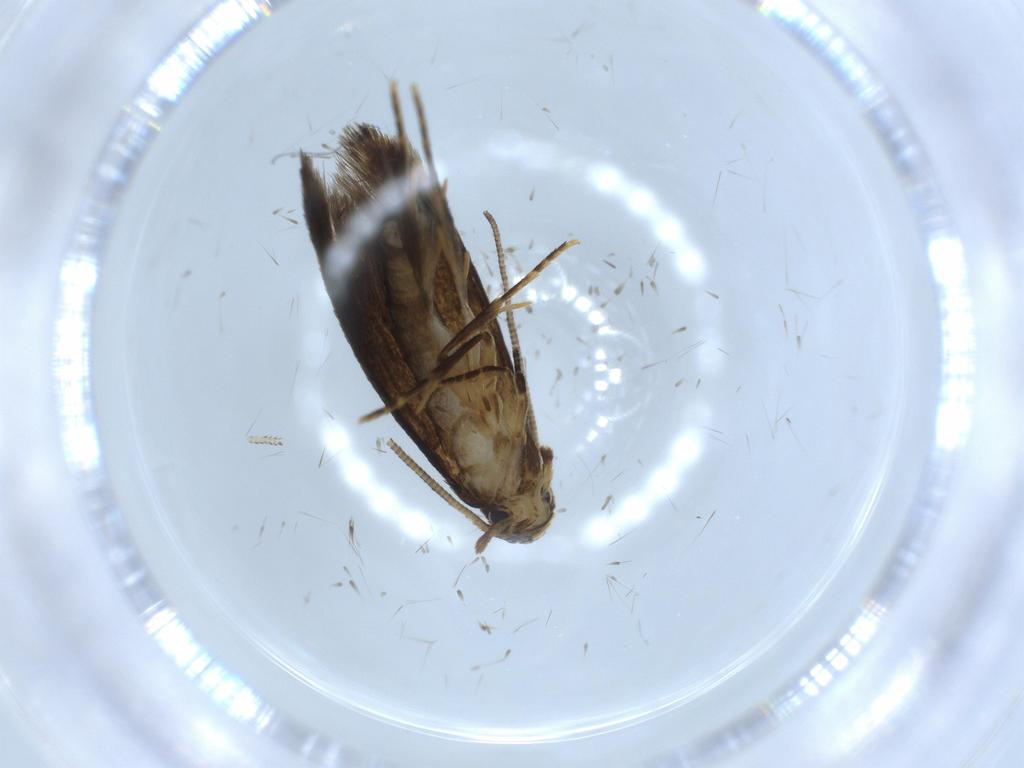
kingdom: Animalia
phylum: Arthropoda
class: Insecta
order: Lepidoptera
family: Tineidae
